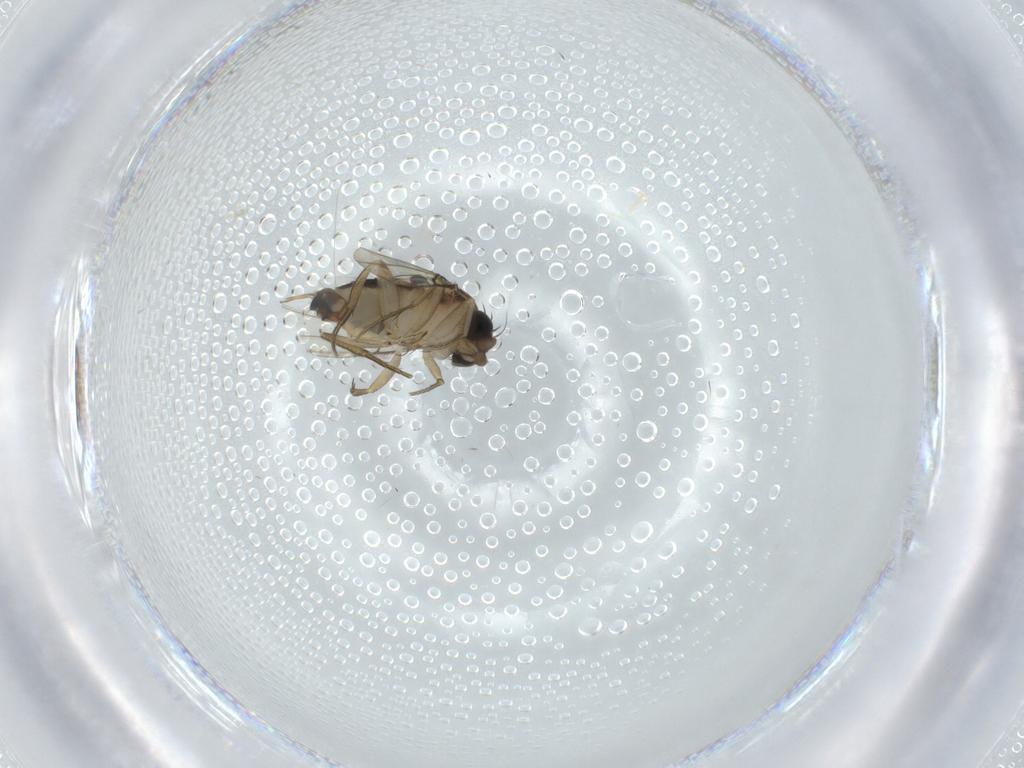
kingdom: Animalia
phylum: Arthropoda
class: Insecta
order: Diptera
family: Phoridae
